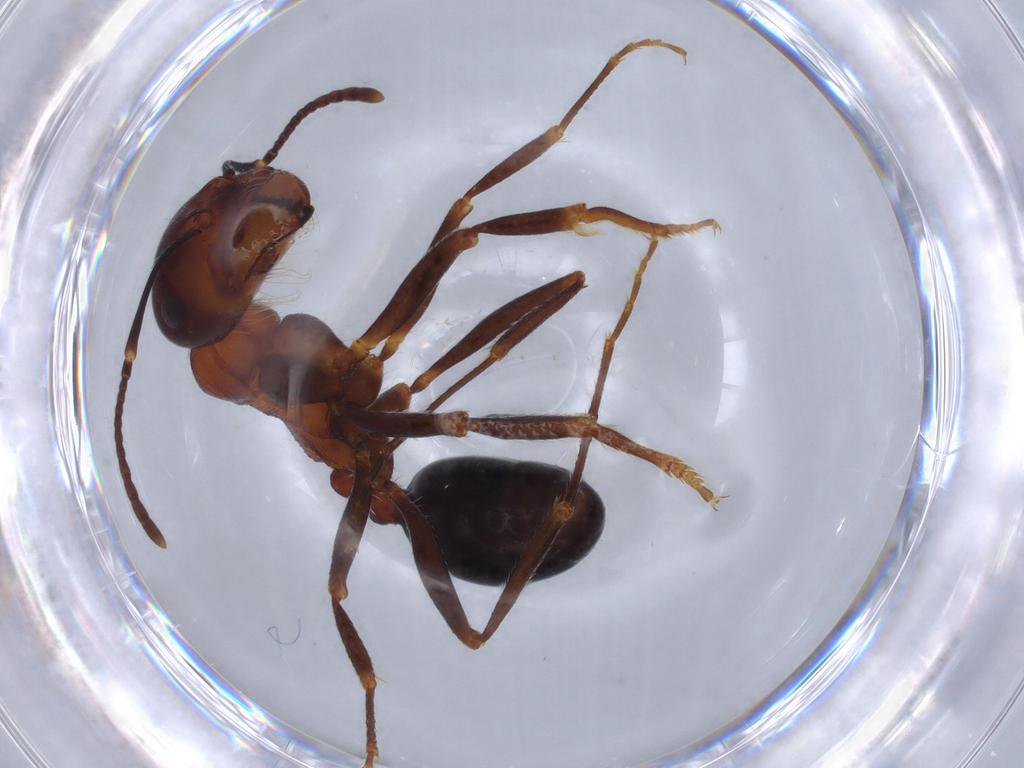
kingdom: Animalia
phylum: Arthropoda
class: Insecta
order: Hymenoptera
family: Formicidae
